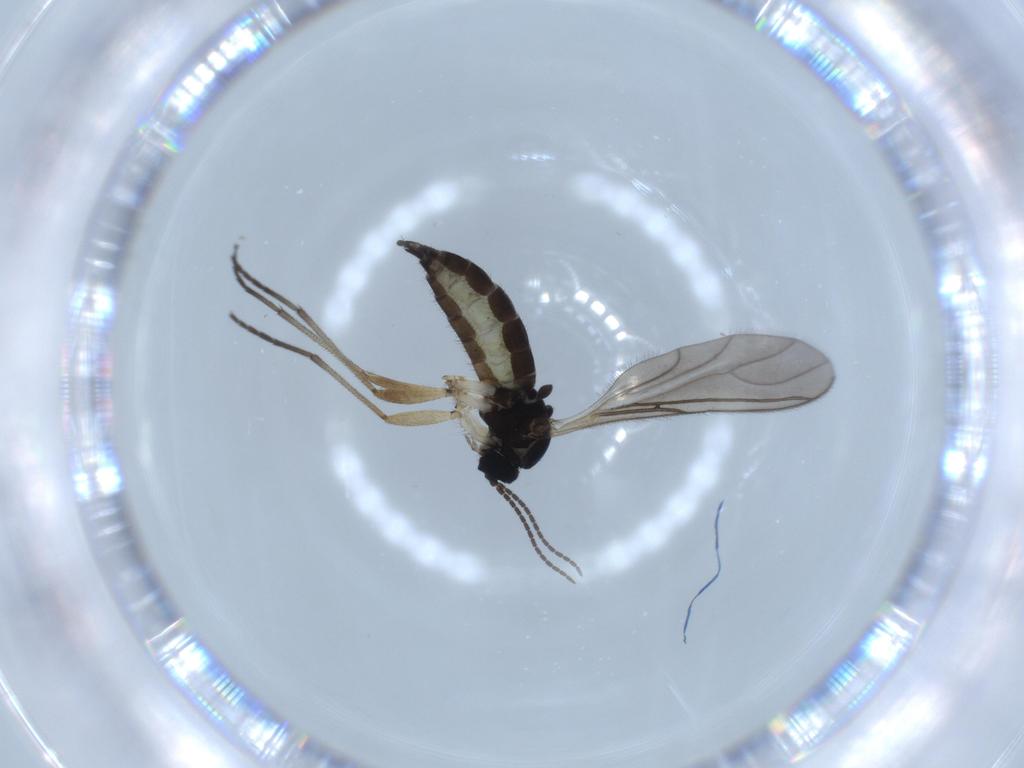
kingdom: Animalia
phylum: Arthropoda
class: Insecta
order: Diptera
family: Sciaridae
